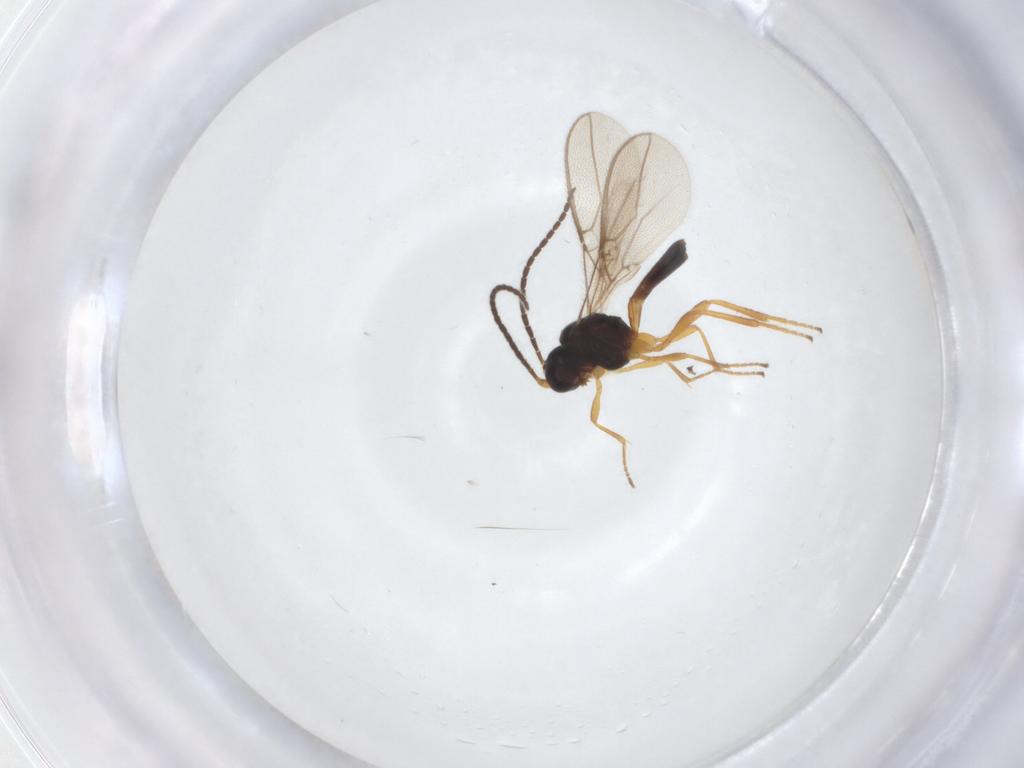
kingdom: Animalia
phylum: Arthropoda
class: Insecta
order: Hymenoptera
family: Braconidae
